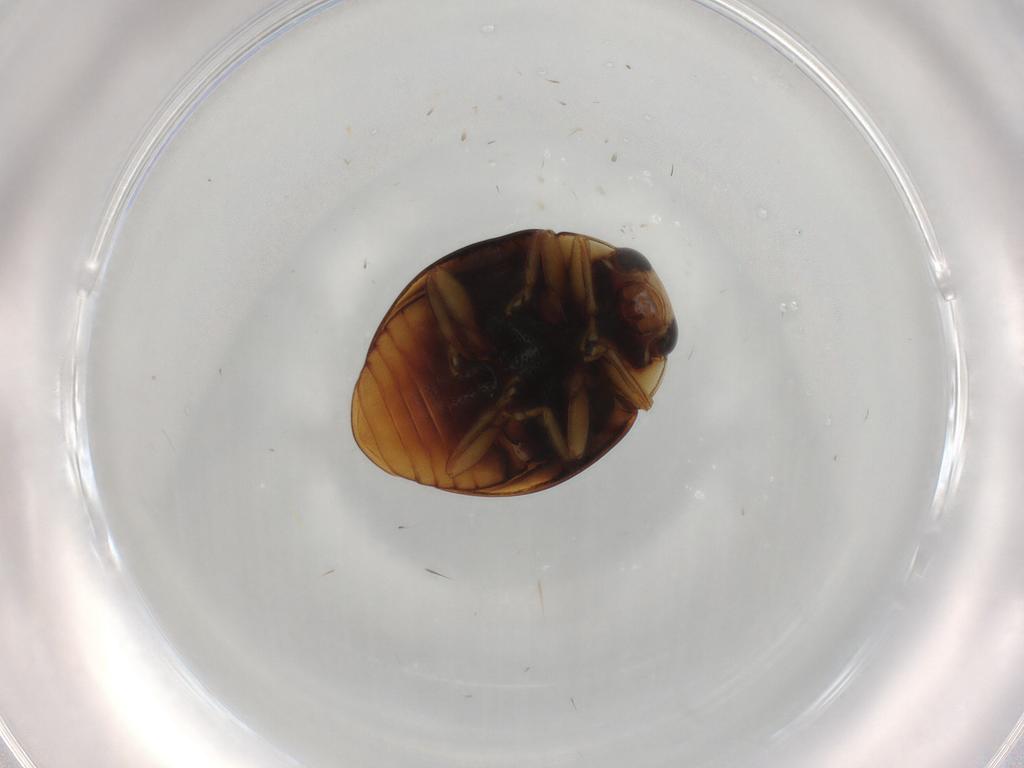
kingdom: Animalia
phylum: Arthropoda
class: Insecta
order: Coleoptera
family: Coccinellidae
